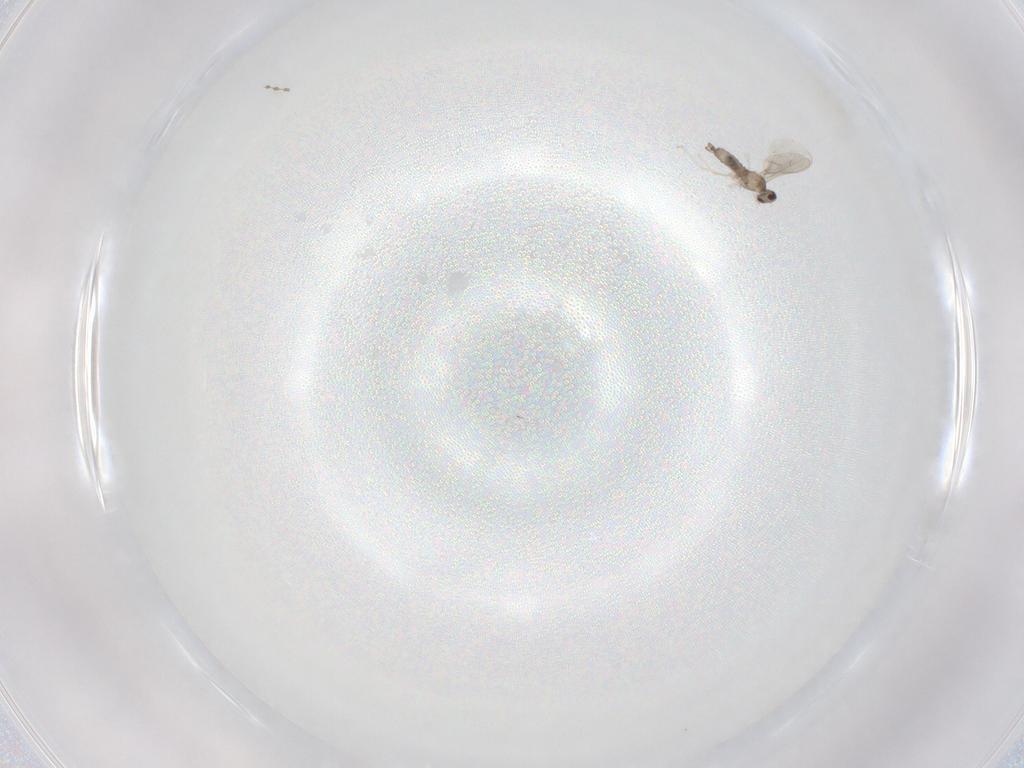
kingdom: Animalia
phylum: Arthropoda
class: Insecta
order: Diptera
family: Cecidomyiidae
